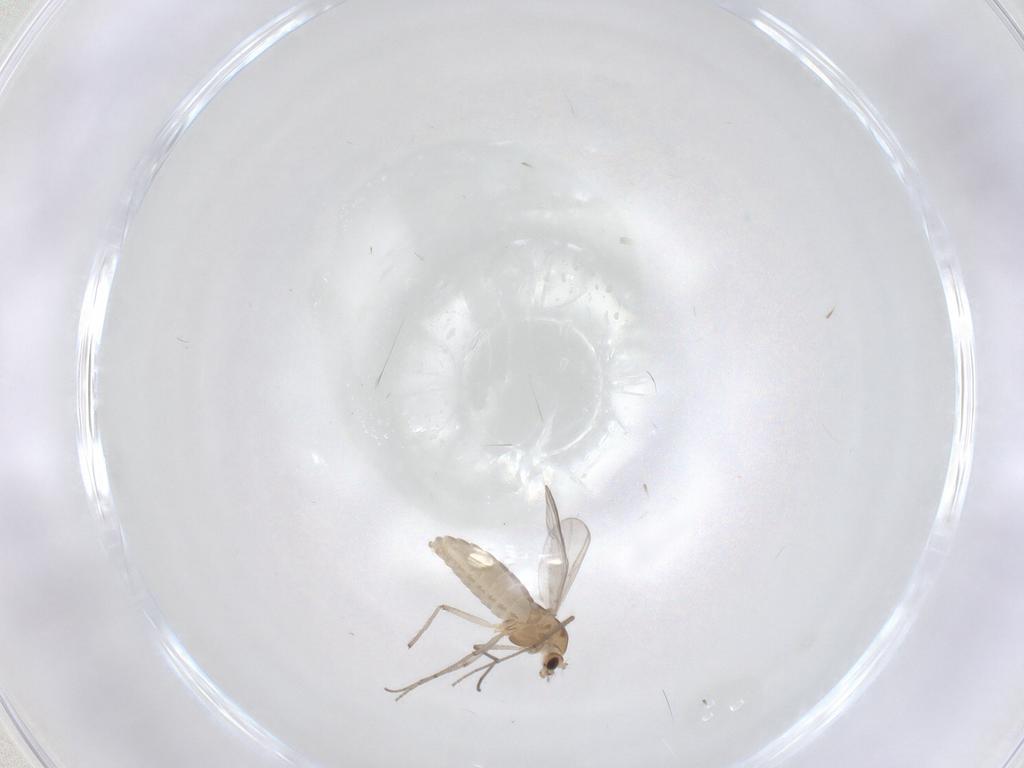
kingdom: Animalia
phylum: Arthropoda
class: Insecta
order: Diptera
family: Chironomidae
